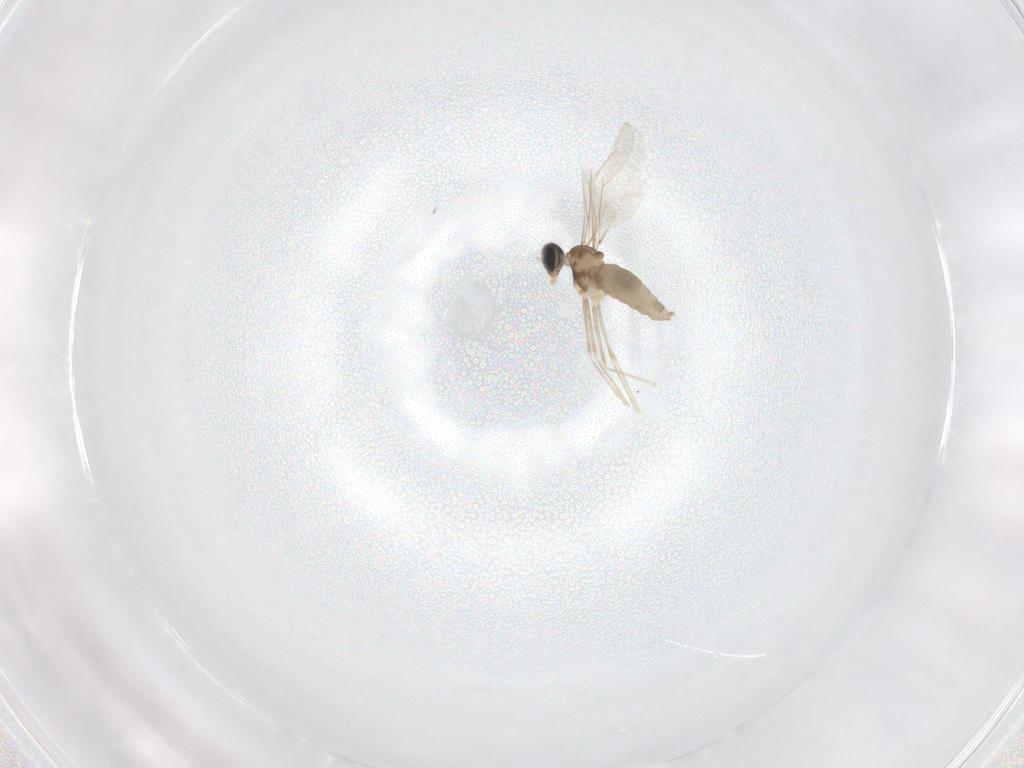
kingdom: Animalia
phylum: Arthropoda
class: Insecta
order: Diptera
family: Cecidomyiidae
